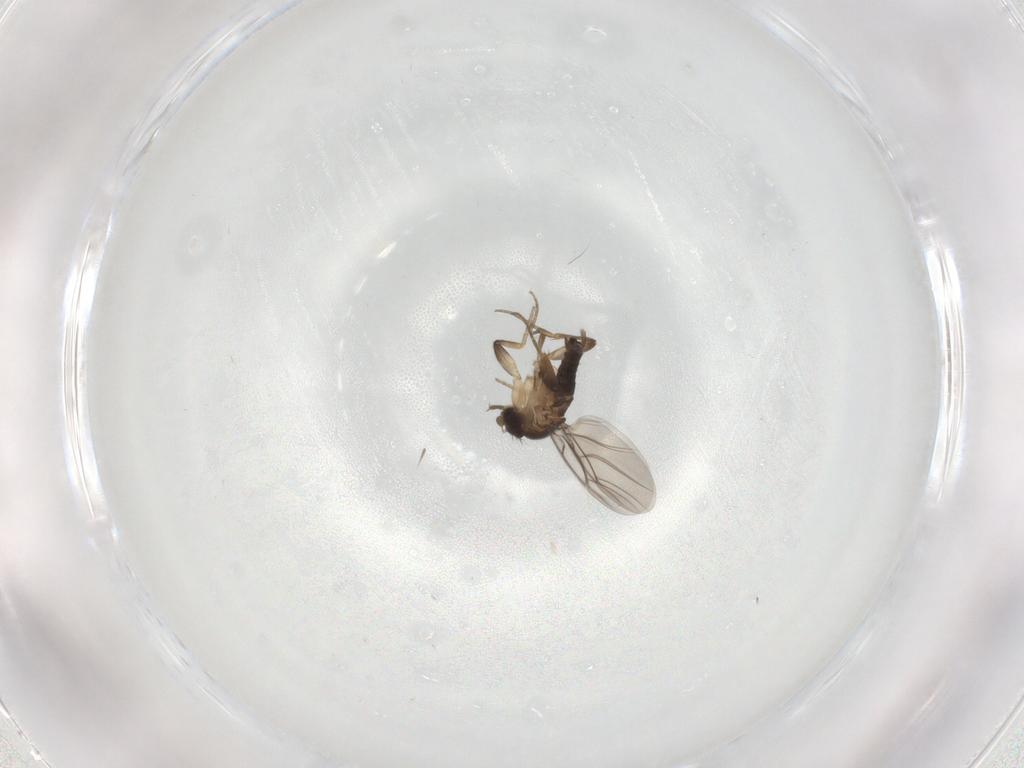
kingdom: Animalia
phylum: Arthropoda
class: Insecta
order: Diptera
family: Phoridae
